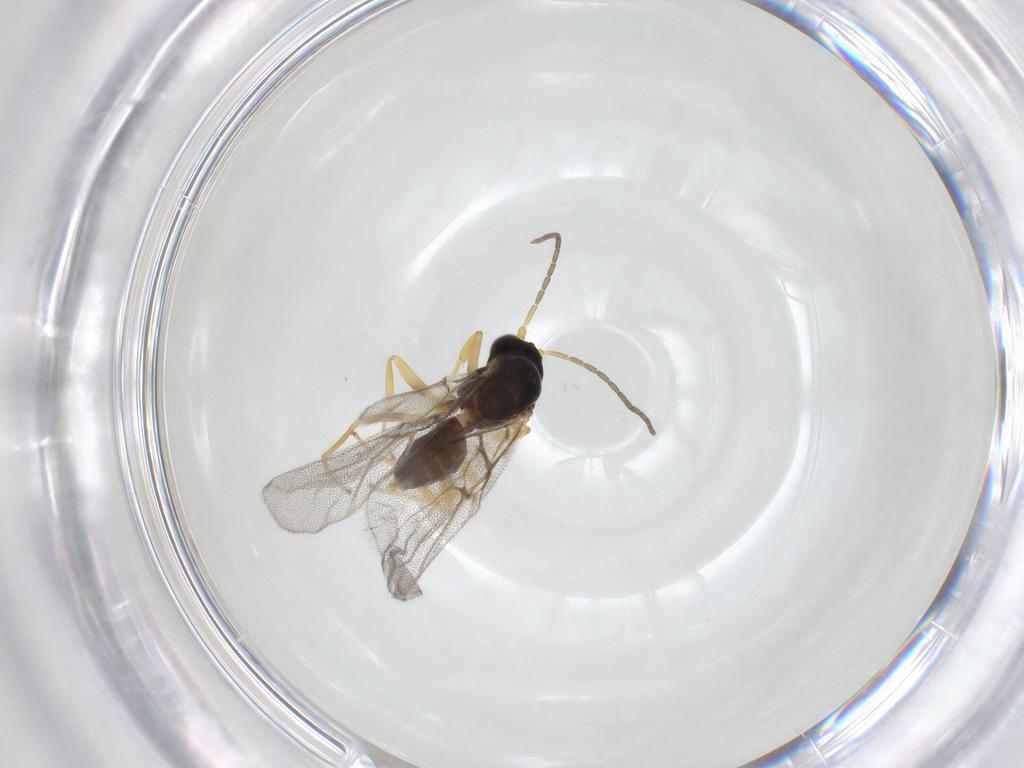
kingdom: Animalia
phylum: Arthropoda
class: Insecta
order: Hymenoptera
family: Cynipidae
